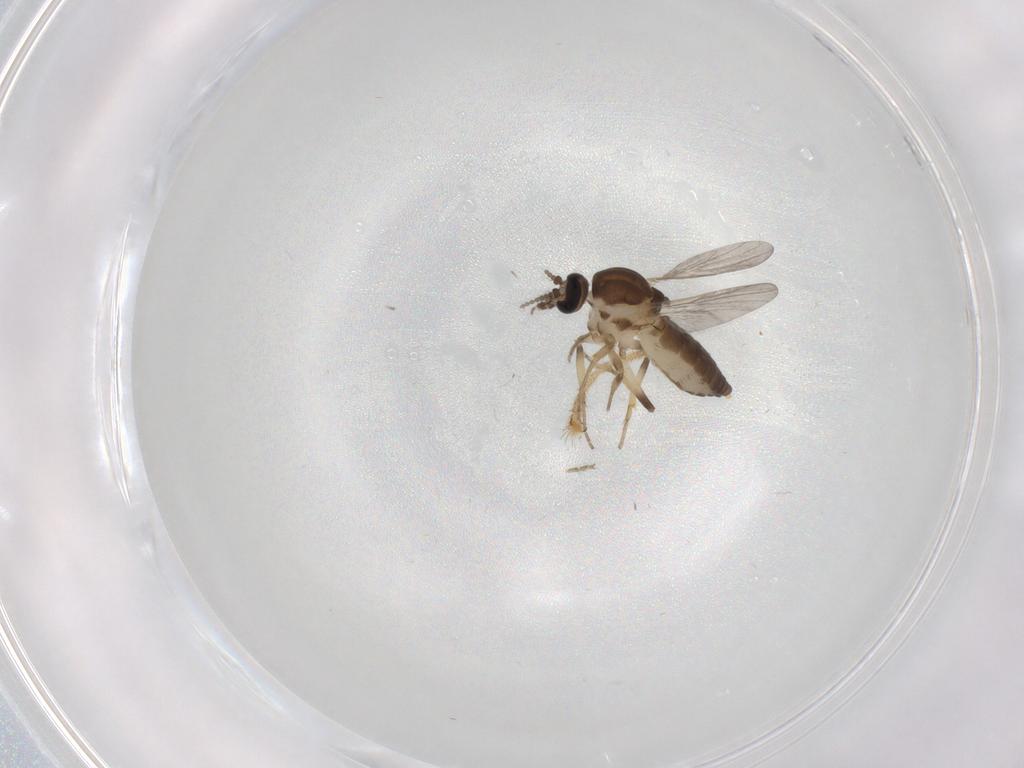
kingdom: Animalia
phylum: Arthropoda
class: Insecta
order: Diptera
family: Ceratopogonidae
